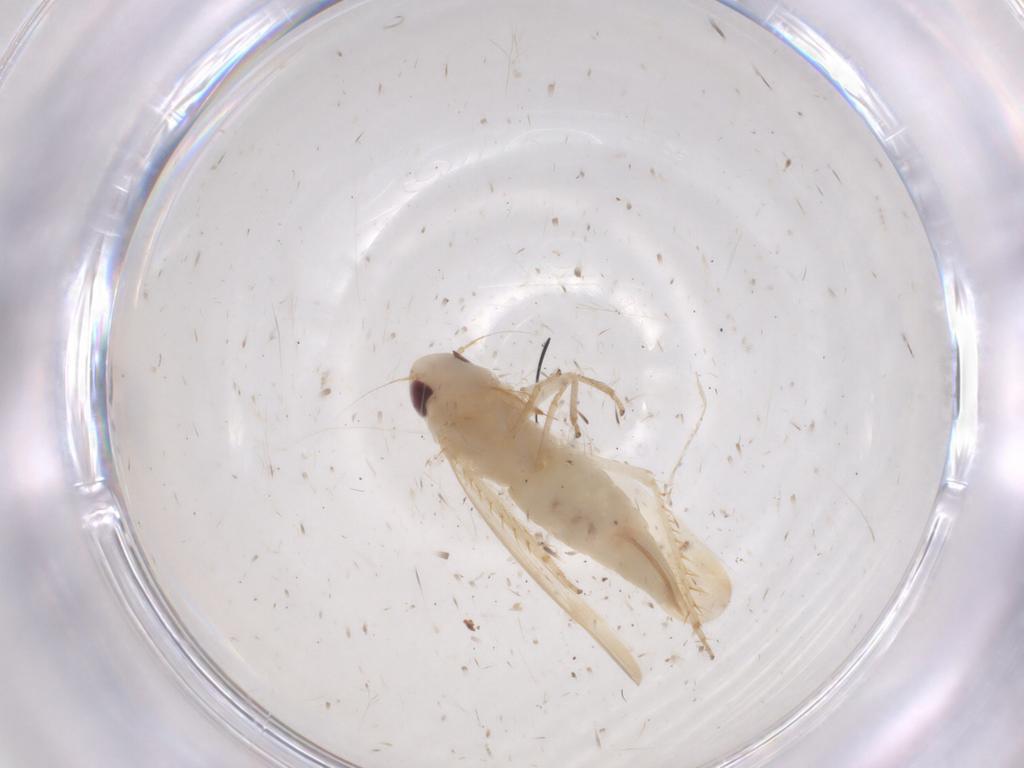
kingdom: Animalia
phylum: Arthropoda
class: Insecta
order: Hemiptera
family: Cicadellidae
